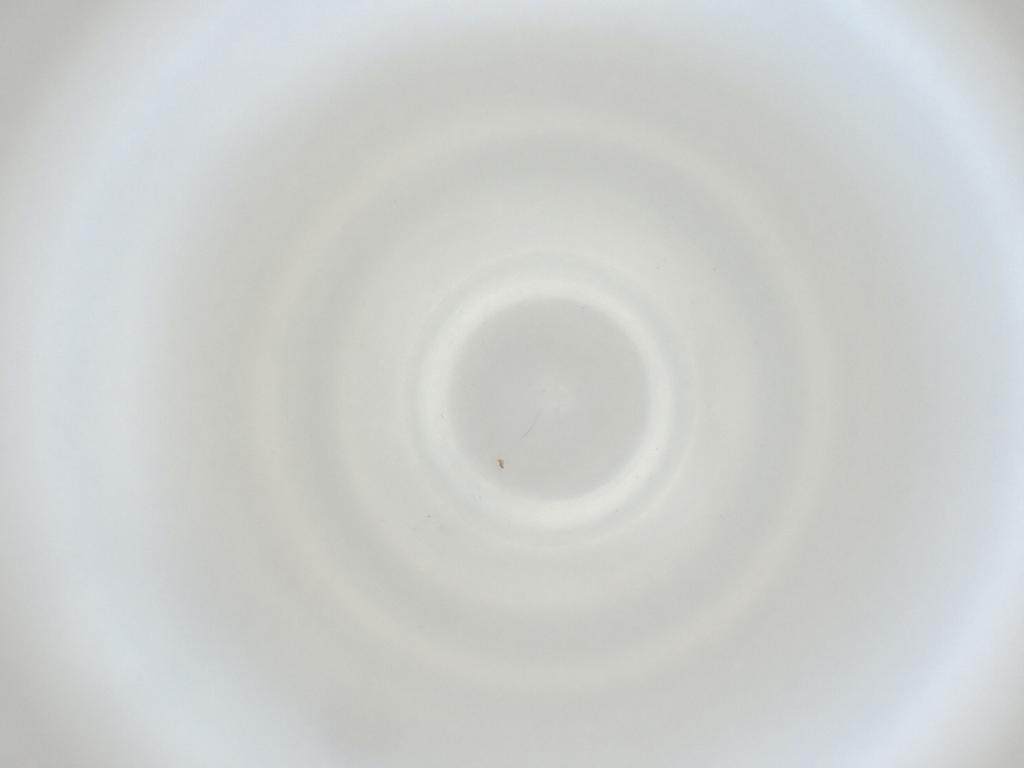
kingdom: Animalia
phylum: Arthropoda
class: Insecta
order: Diptera
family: Cecidomyiidae
